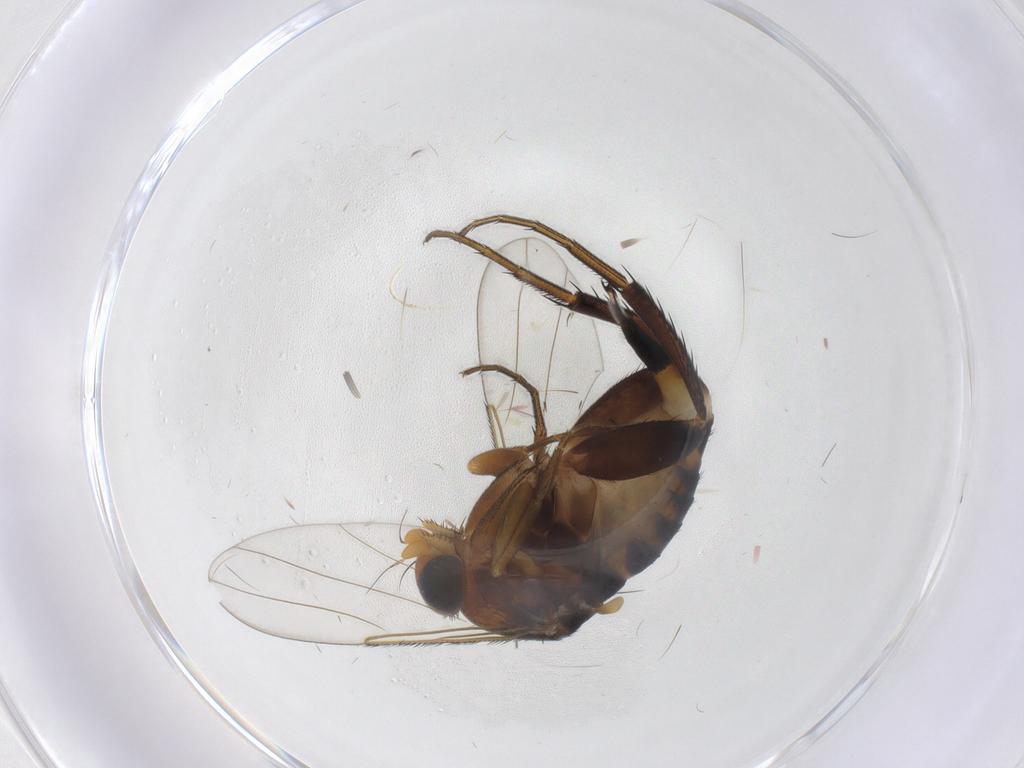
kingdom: Animalia
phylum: Arthropoda
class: Insecta
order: Diptera
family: Phoridae
